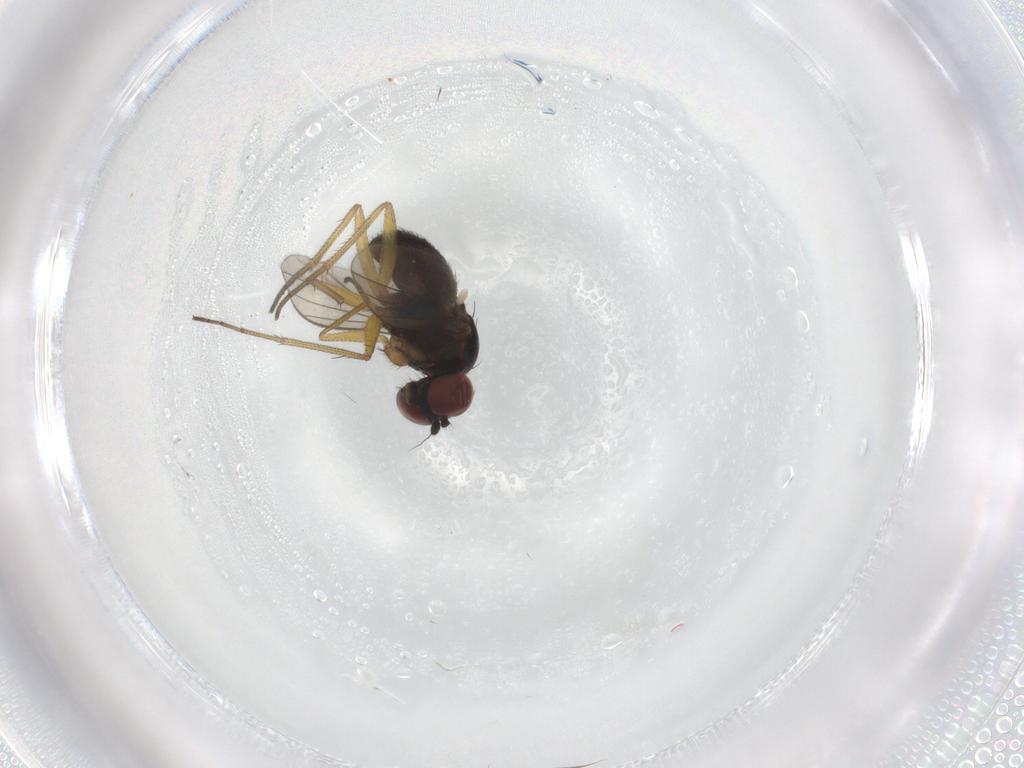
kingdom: Animalia
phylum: Arthropoda
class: Insecta
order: Diptera
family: Dolichopodidae
